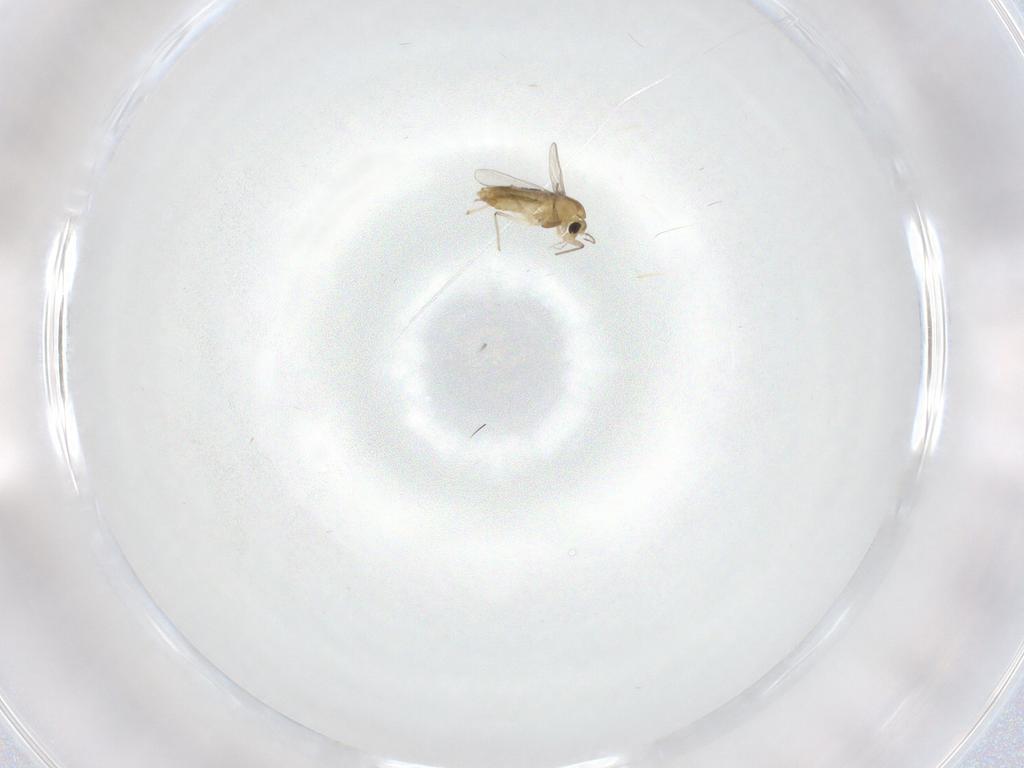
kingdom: Animalia
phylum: Arthropoda
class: Insecta
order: Diptera
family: Chironomidae
